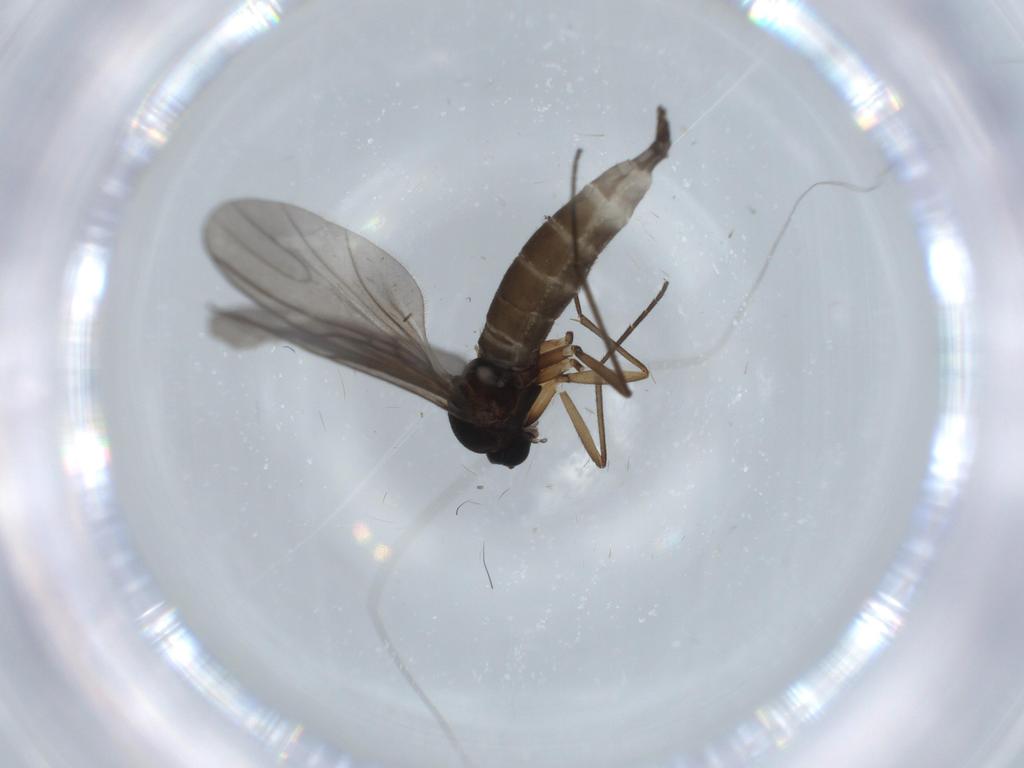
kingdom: Animalia
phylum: Arthropoda
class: Insecta
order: Diptera
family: Sciaridae
